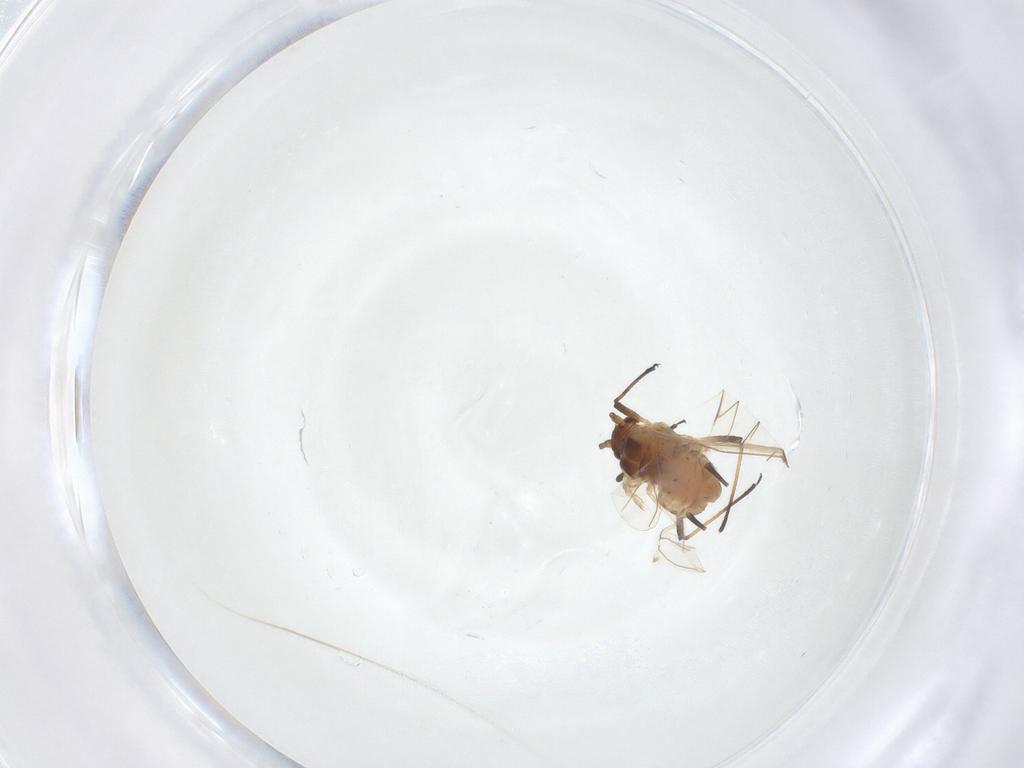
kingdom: Animalia
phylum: Arthropoda
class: Insecta
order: Hemiptera
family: Aphididae
